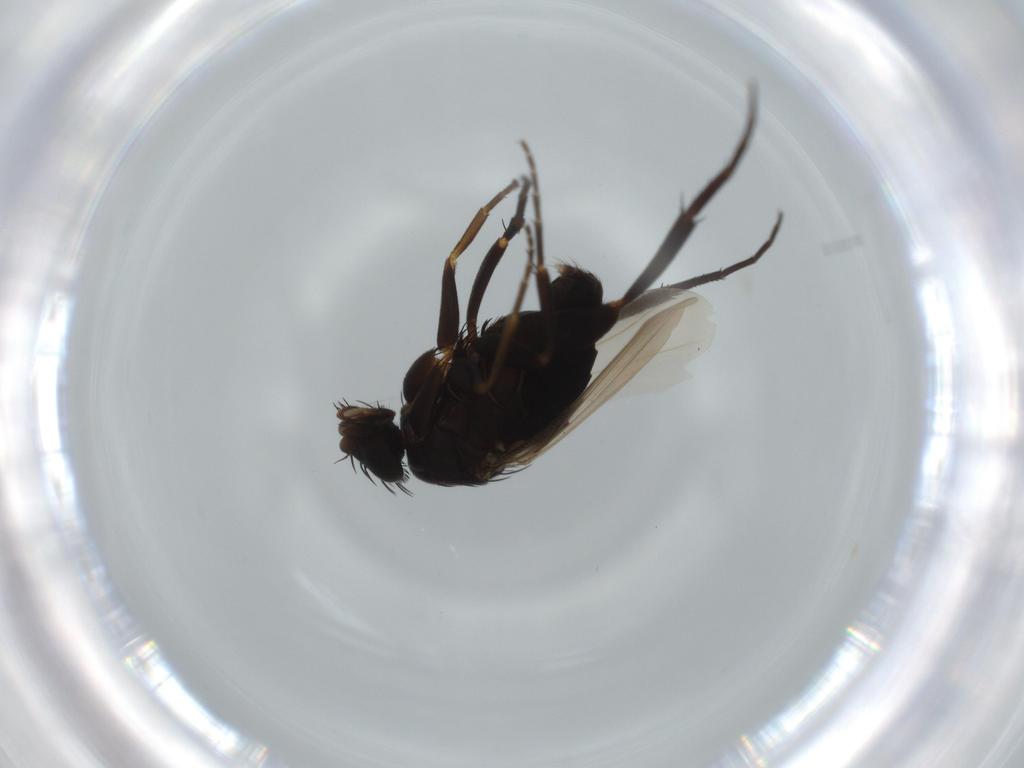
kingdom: Animalia
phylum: Arthropoda
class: Insecta
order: Diptera
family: Phoridae
